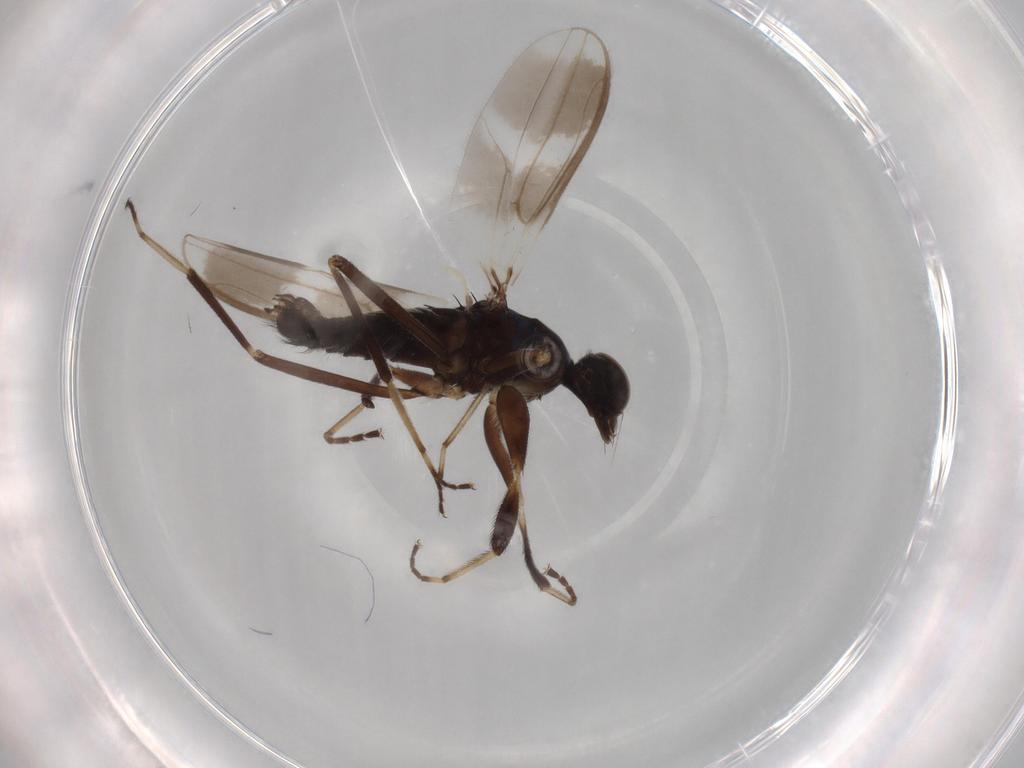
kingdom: Animalia
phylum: Arthropoda
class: Insecta
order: Diptera
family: Hybotidae
